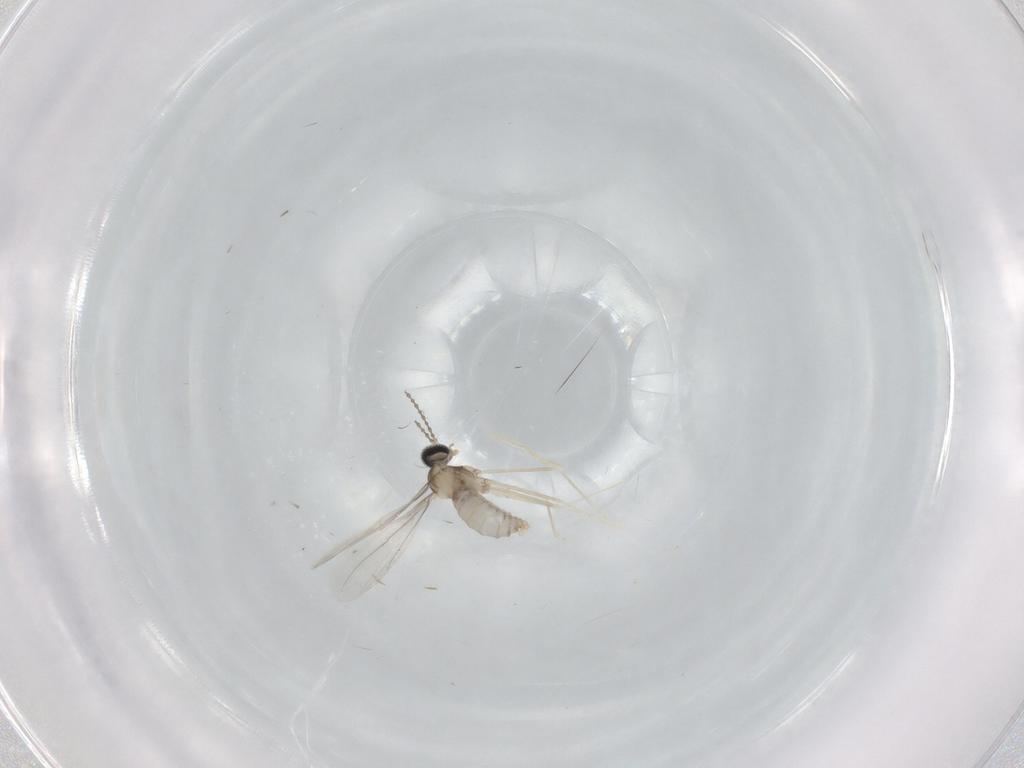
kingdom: Animalia
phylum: Arthropoda
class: Insecta
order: Diptera
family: Cecidomyiidae
